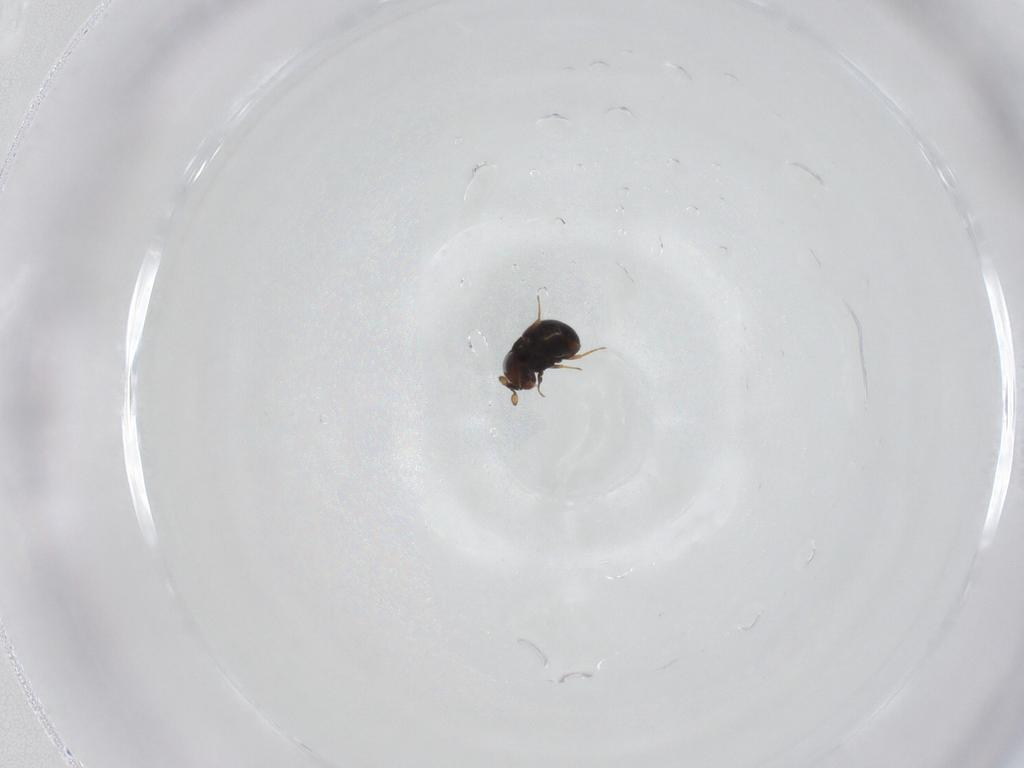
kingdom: Animalia
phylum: Arthropoda
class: Insecta
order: Hymenoptera
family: Scelionidae
